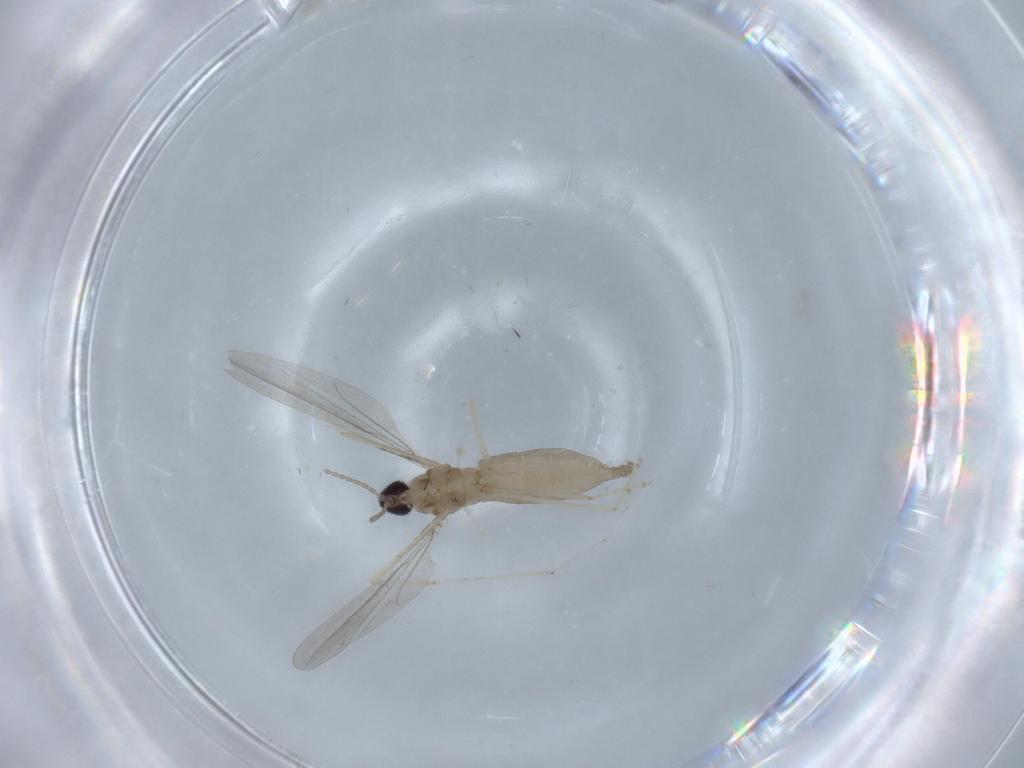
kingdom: Animalia
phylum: Arthropoda
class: Insecta
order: Diptera
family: Cecidomyiidae
